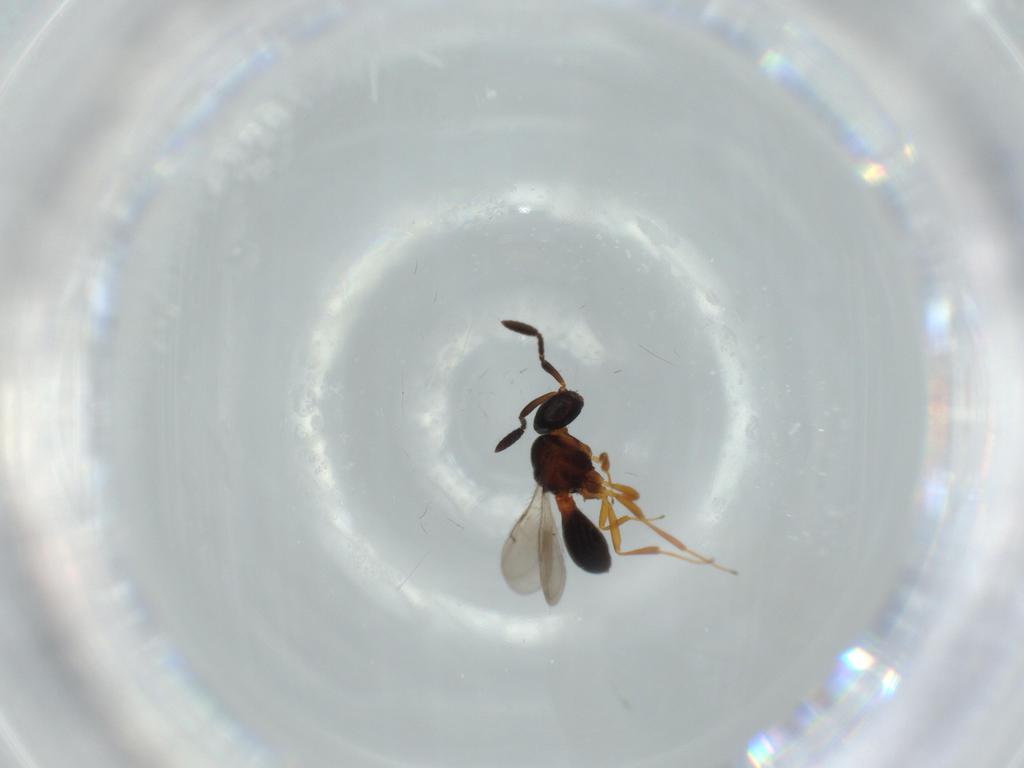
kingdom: Animalia
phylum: Arthropoda
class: Insecta
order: Hymenoptera
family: Scelionidae
